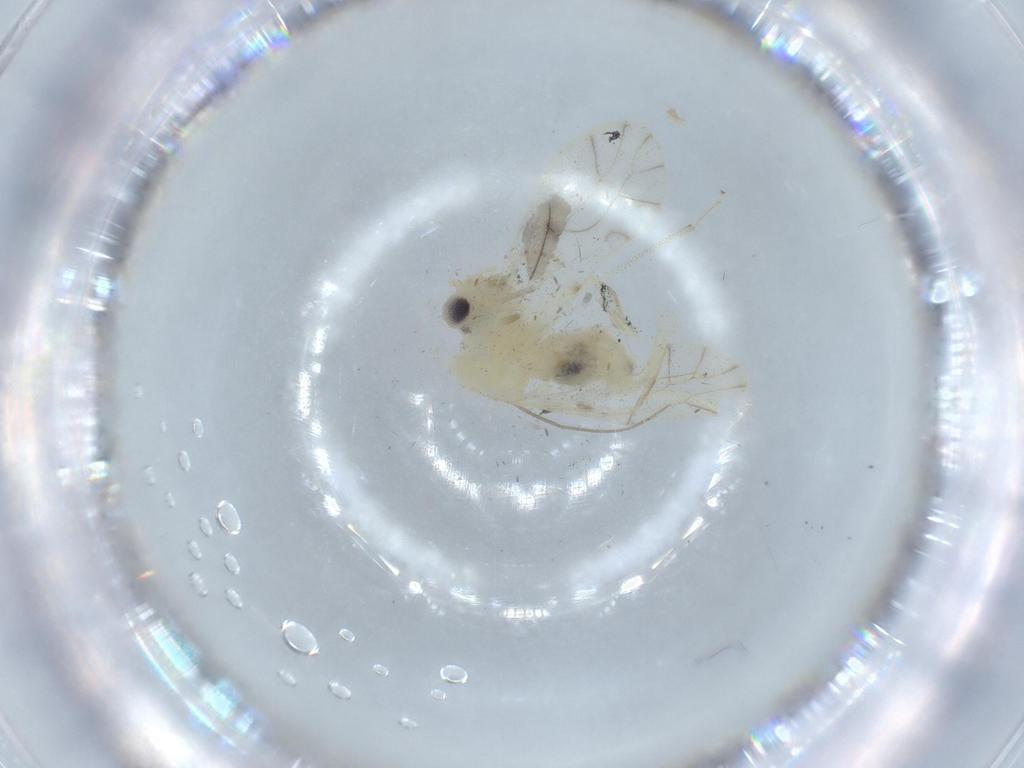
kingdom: Animalia
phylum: Arthropoda
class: Insecta
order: Psocodea
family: Caeciliusidae
